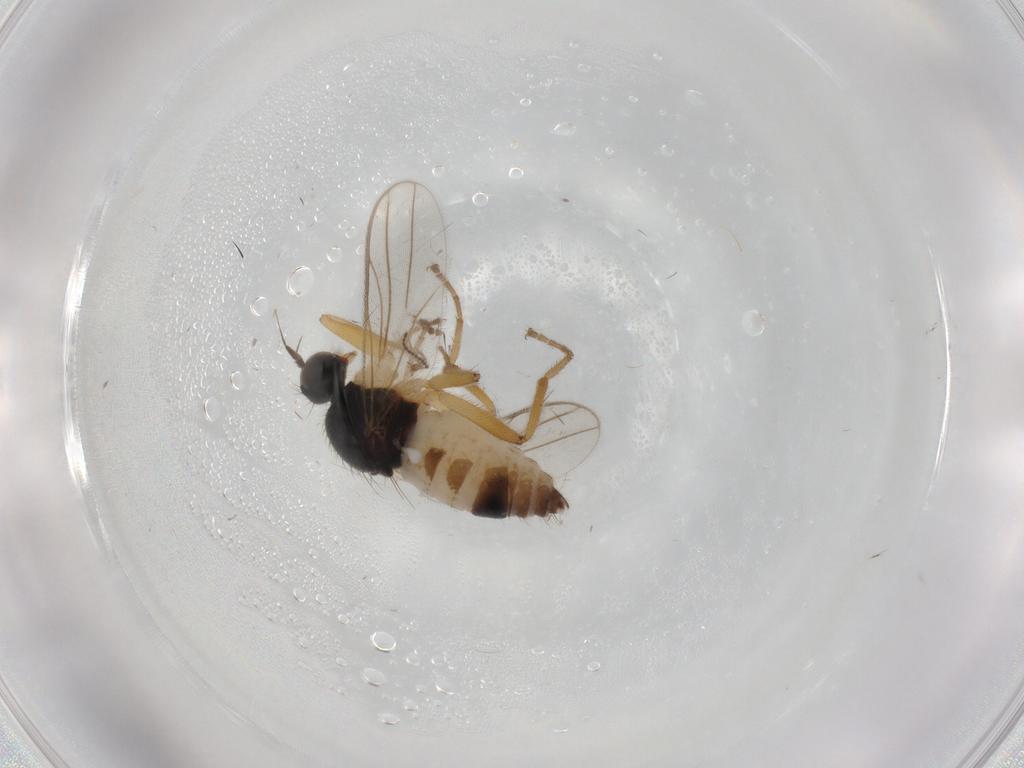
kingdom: Animalia
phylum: Arthropoda
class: Insecta
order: Diptera
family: Hybotidae
